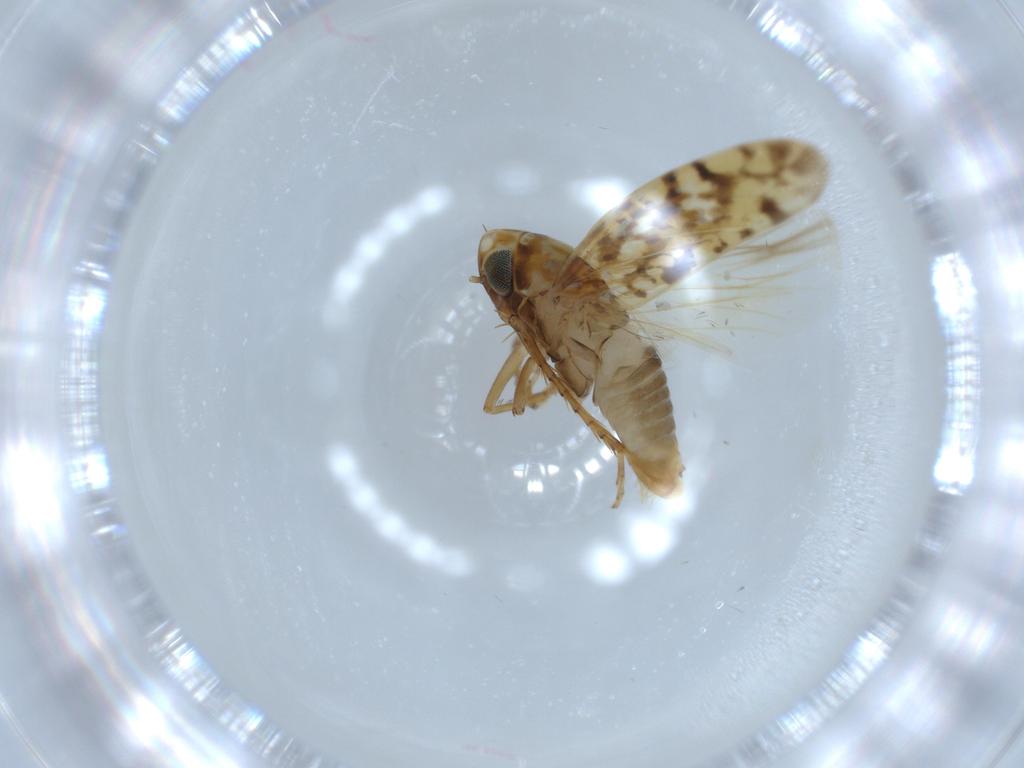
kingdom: Animalia
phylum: Arthropoda
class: Insecta
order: Hemiptera
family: Cicadellidae
